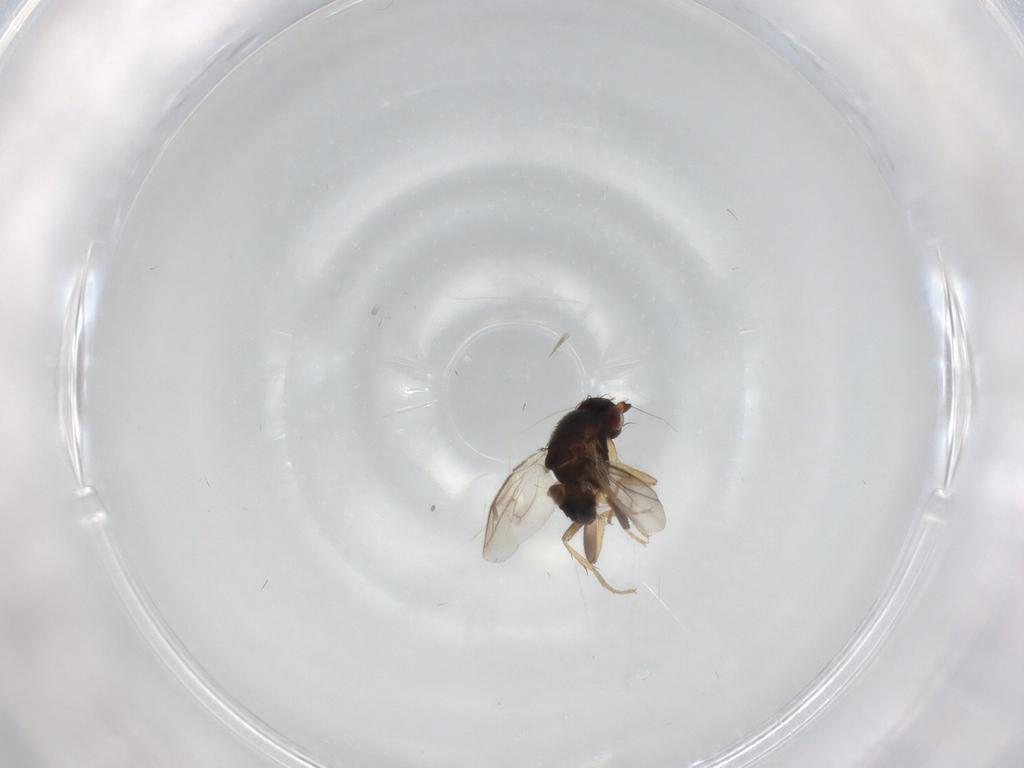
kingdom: Animalia
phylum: Arthropoda
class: Insecta
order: Diptera
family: Sphaeroceridae
